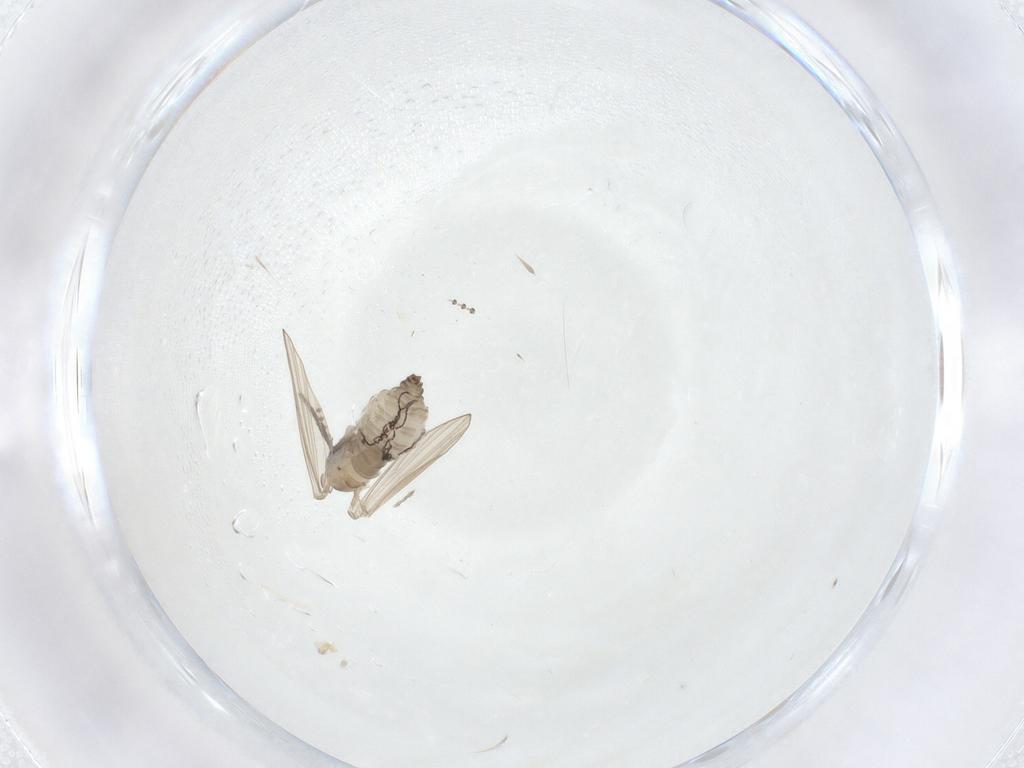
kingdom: Animalia
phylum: Arthropoda
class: Insecta
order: Diptera
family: Psychodidae
